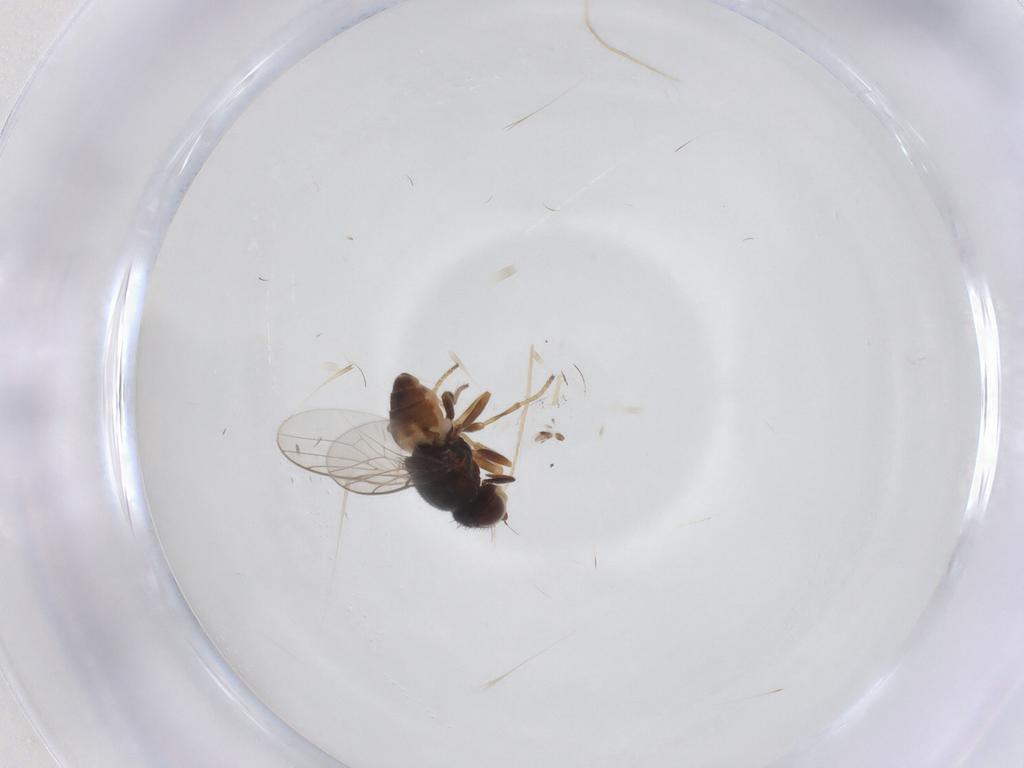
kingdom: Animalia
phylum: Arthropoda
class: Insecta
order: Diptera
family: Chloropidae
